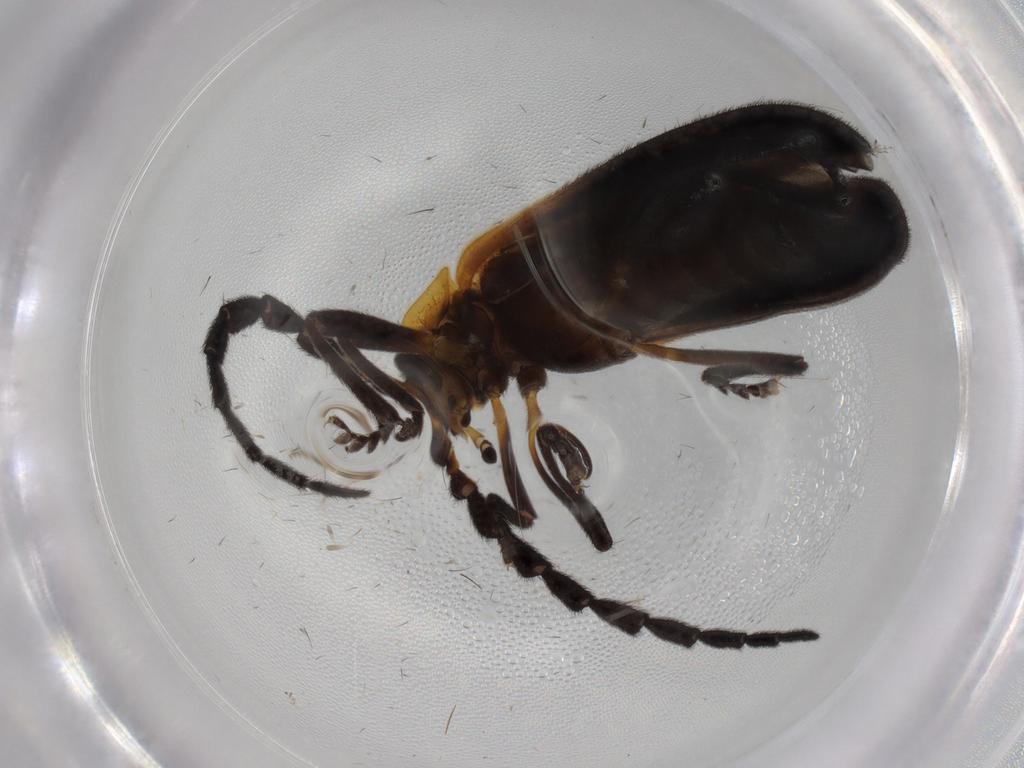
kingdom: Animalia
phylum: Arthropoda
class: Insecta
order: Coleoptera
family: Lycidae
